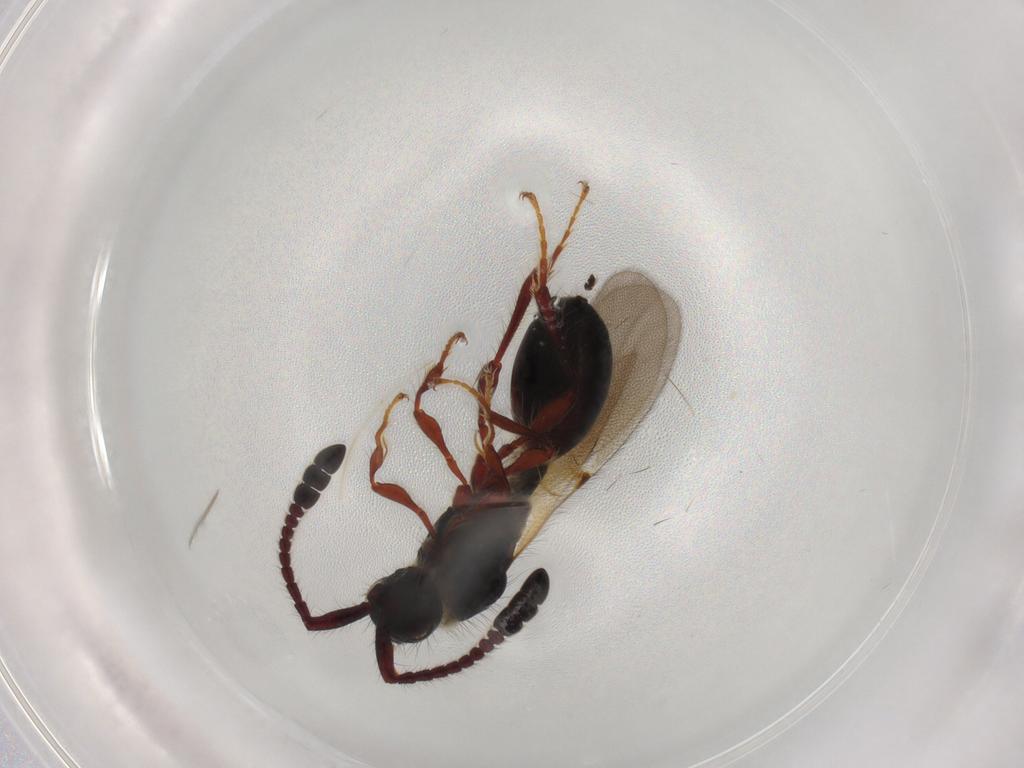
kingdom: Animalia
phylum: Arthropoda
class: Insecta
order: Hymenoptera
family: Diapriidae
